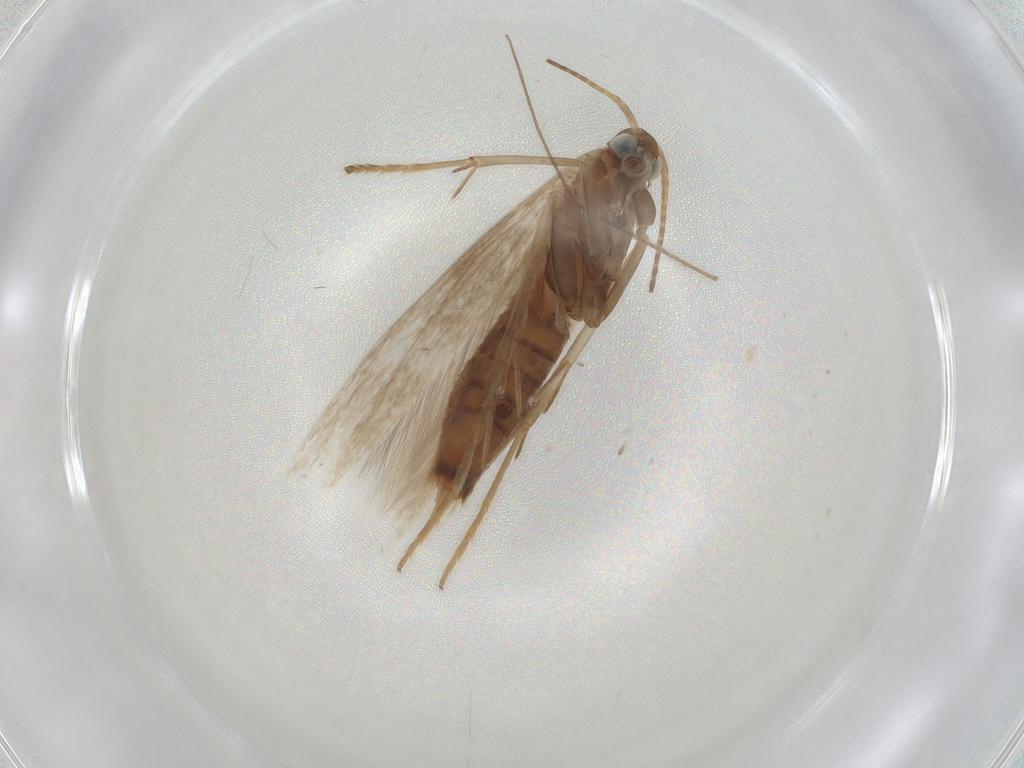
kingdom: Animalia
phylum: Arthropoda
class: Insecta
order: Lepidoptera
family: Coleophoridae
